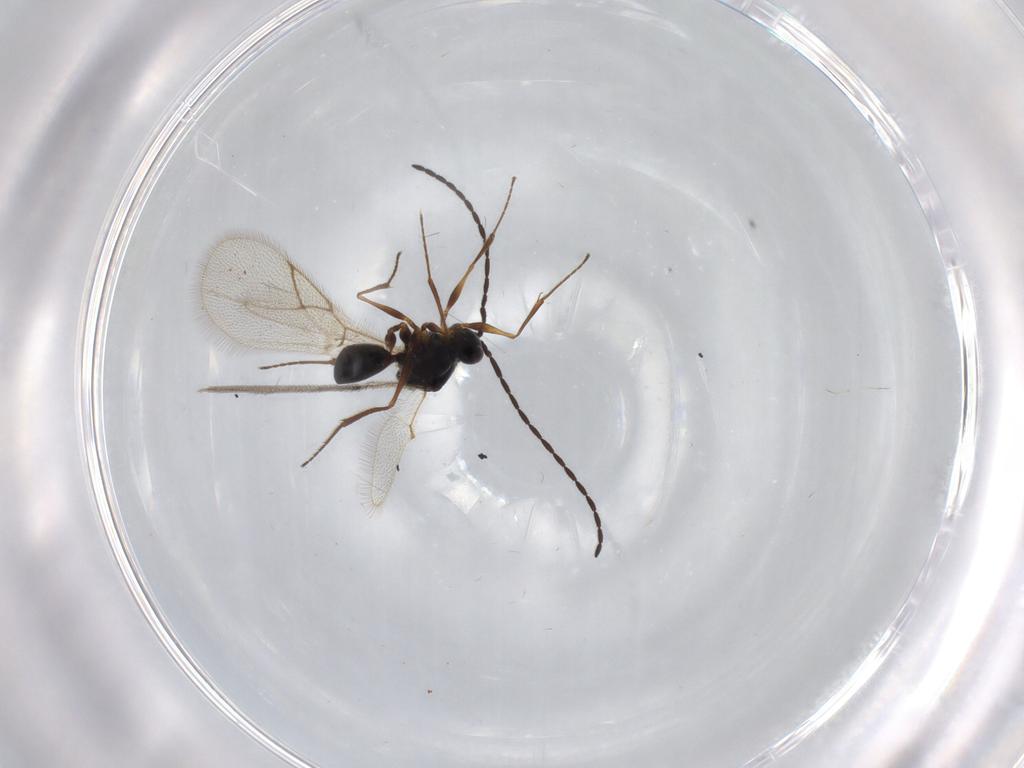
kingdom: Animalia
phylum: Arthropoda
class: Insecta
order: Hymenoptera
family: Figitidae
